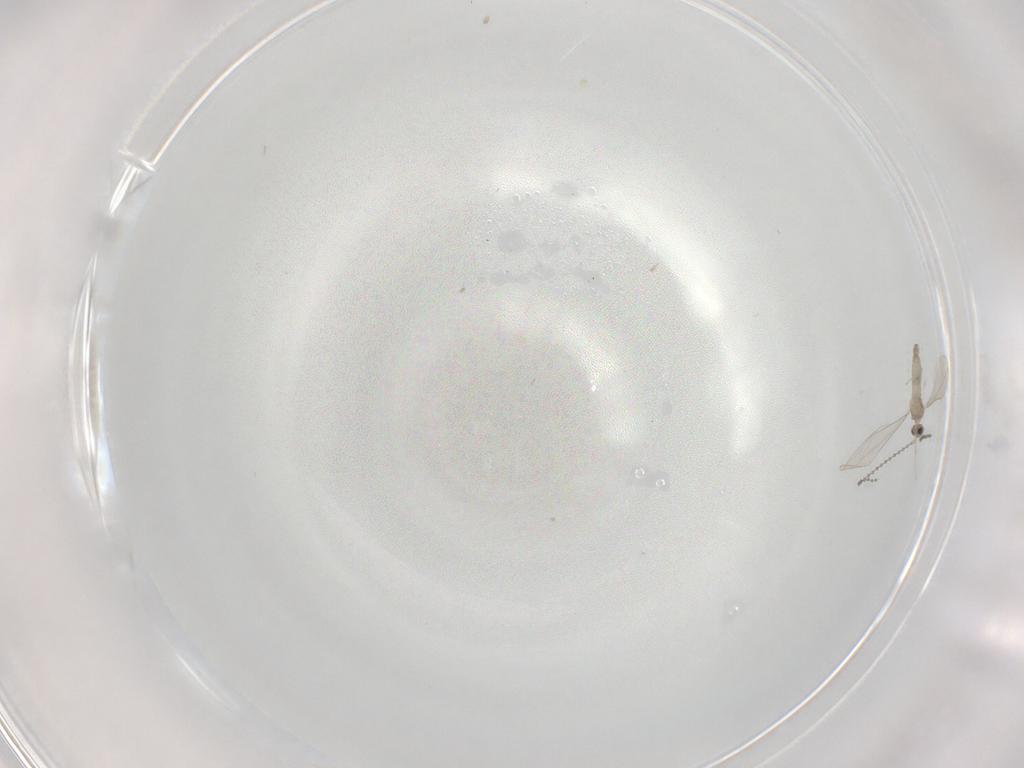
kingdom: Animalia
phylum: Arthropoda
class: Insecta
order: Diptera
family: Cecidomyiidae
